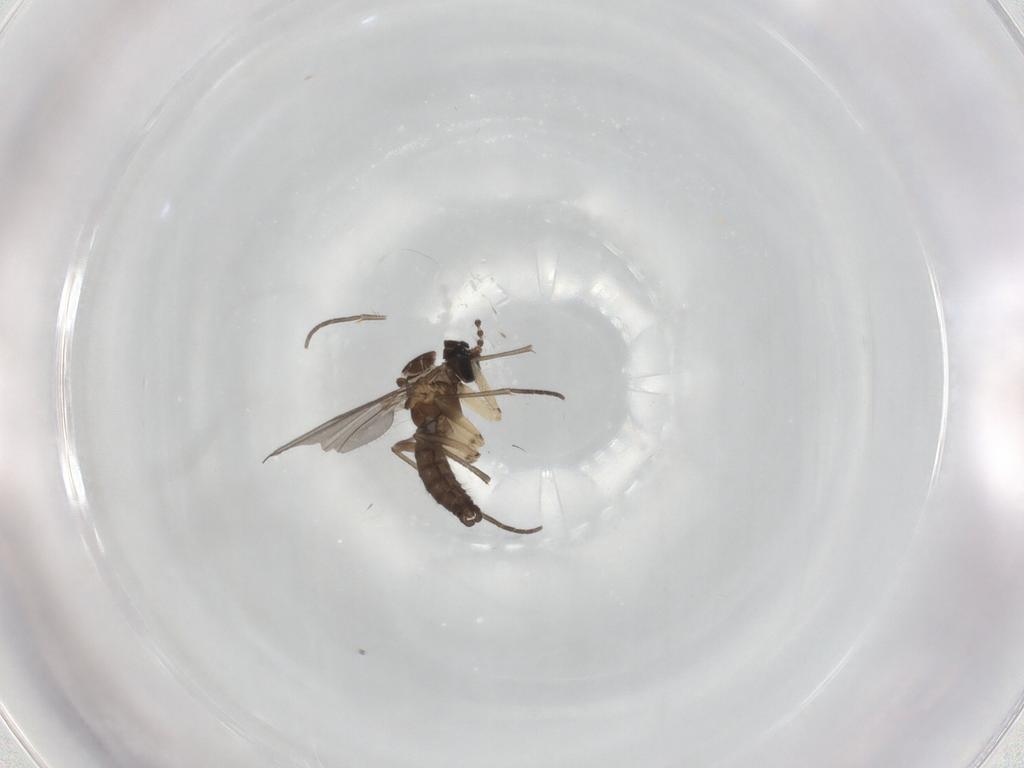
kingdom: Animalia
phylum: Arthropoda
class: Insecta
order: Diptera
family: Sciaridae
